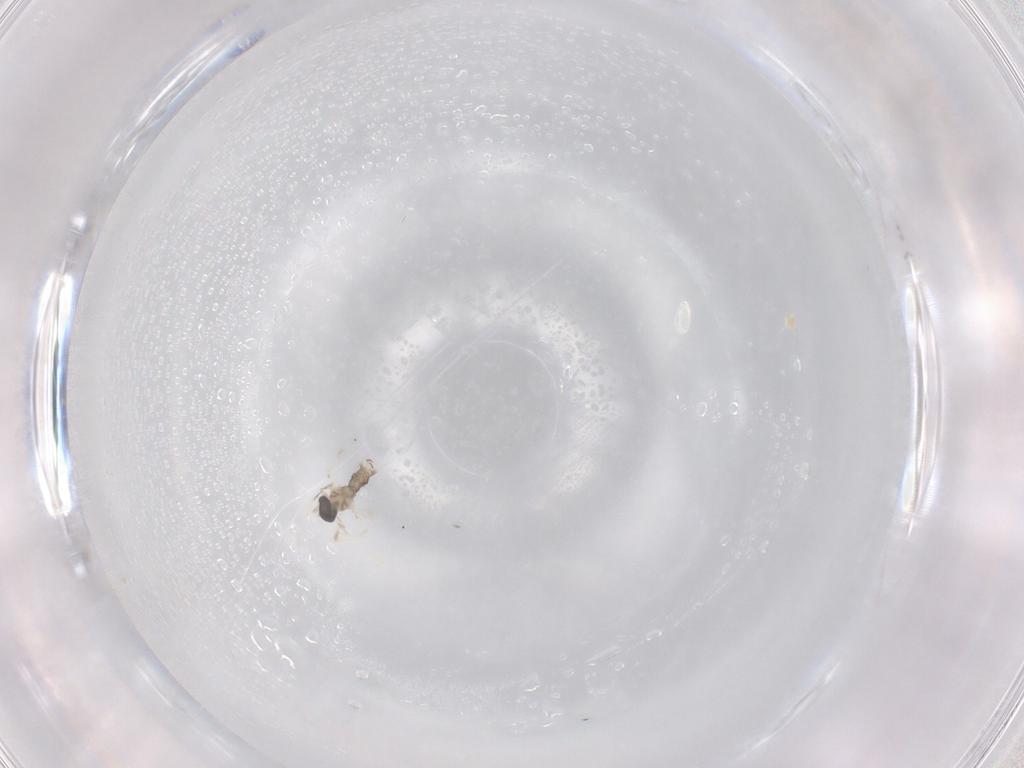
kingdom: Animalia
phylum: Arthropoda
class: Insecta
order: Diptera
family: Cecidomyiidae
